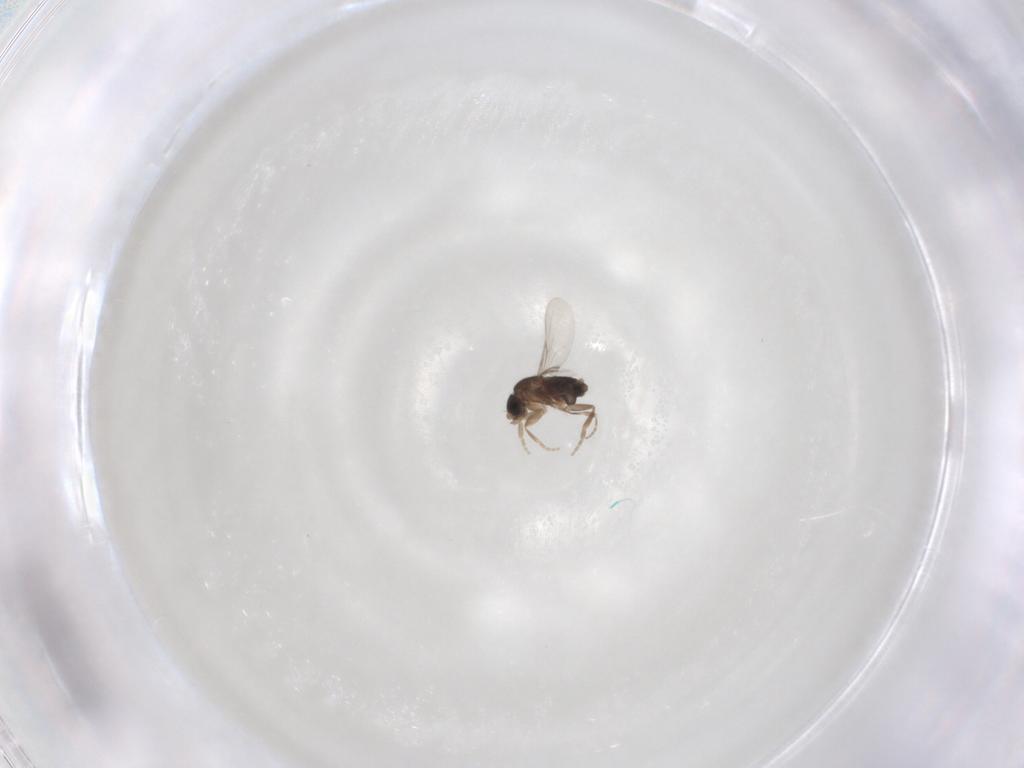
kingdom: Animalia
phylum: Arthropoda
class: Insecta
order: Diptera
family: Phoridae
